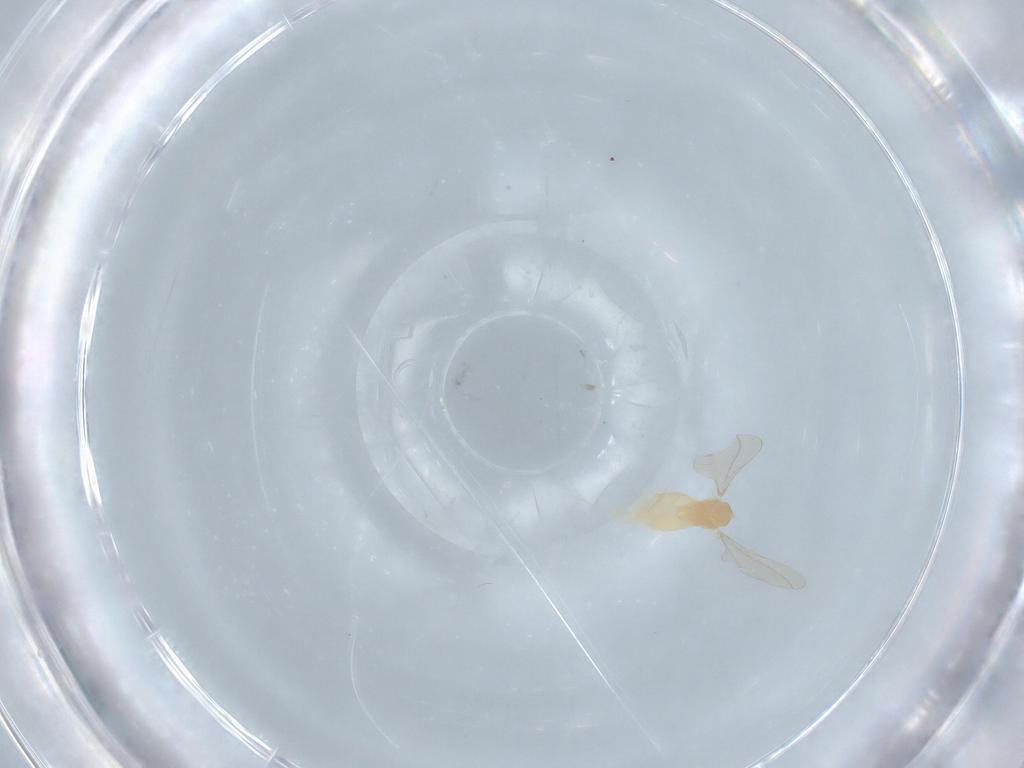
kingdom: Animalia
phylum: Arthropoda
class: Insecta
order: Diptera
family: Cecidomyiidae
